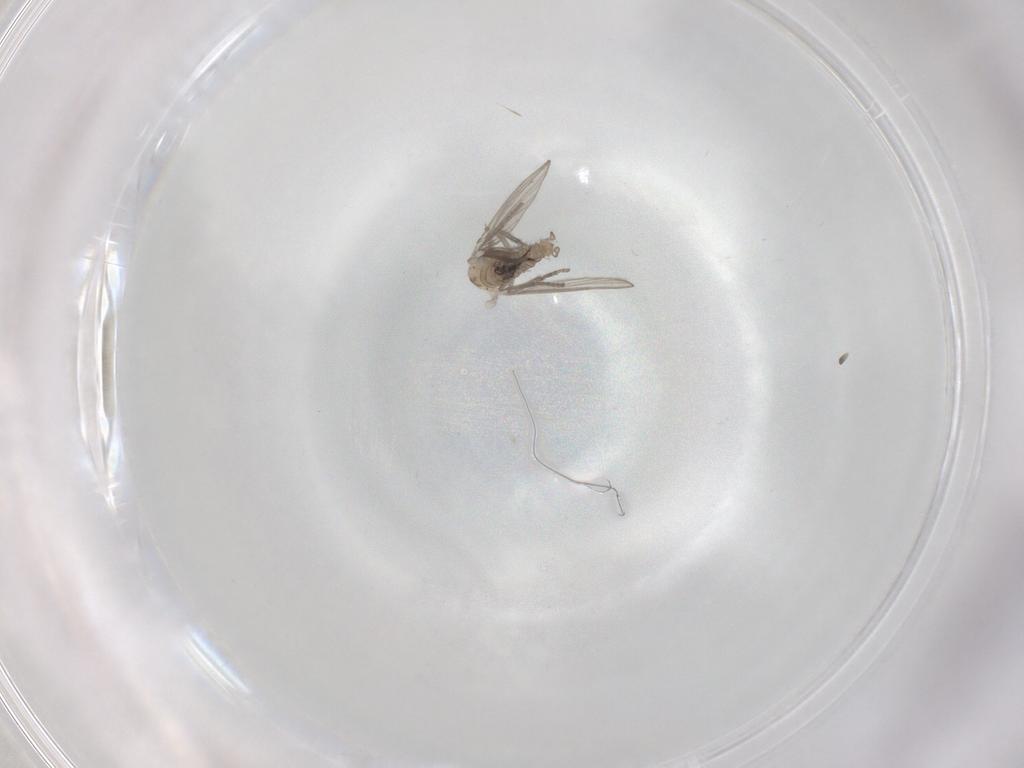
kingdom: Animalia
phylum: Arthropoda
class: Insecta
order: Diptera
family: Psychodidae
